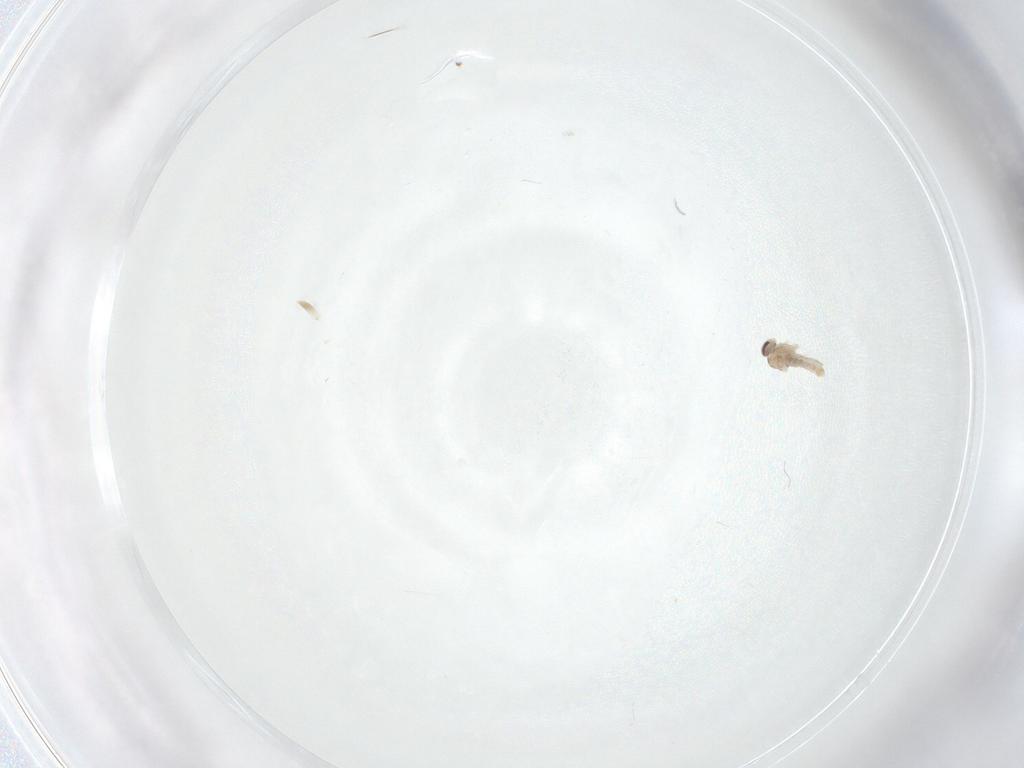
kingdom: Animalia
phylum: Arthropoda
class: Insecta
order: Diptera
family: Cecidomyiidae
